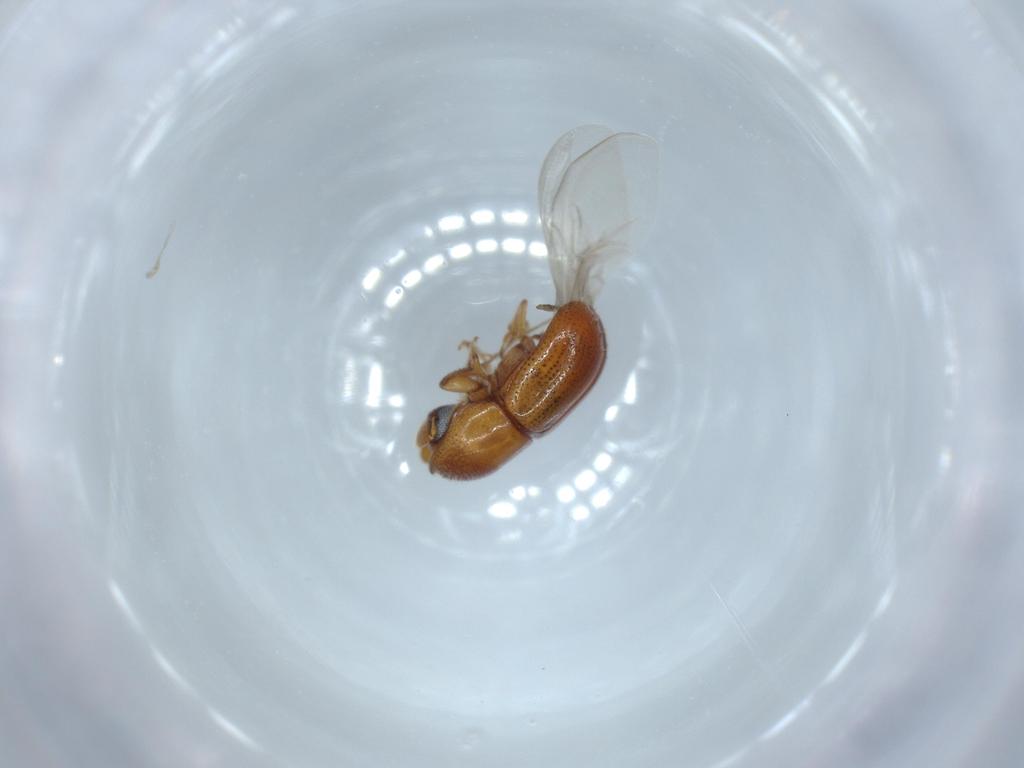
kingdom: Animalia
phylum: Arthropoda
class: Insecta
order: Coleoptera
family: Curculionidae
